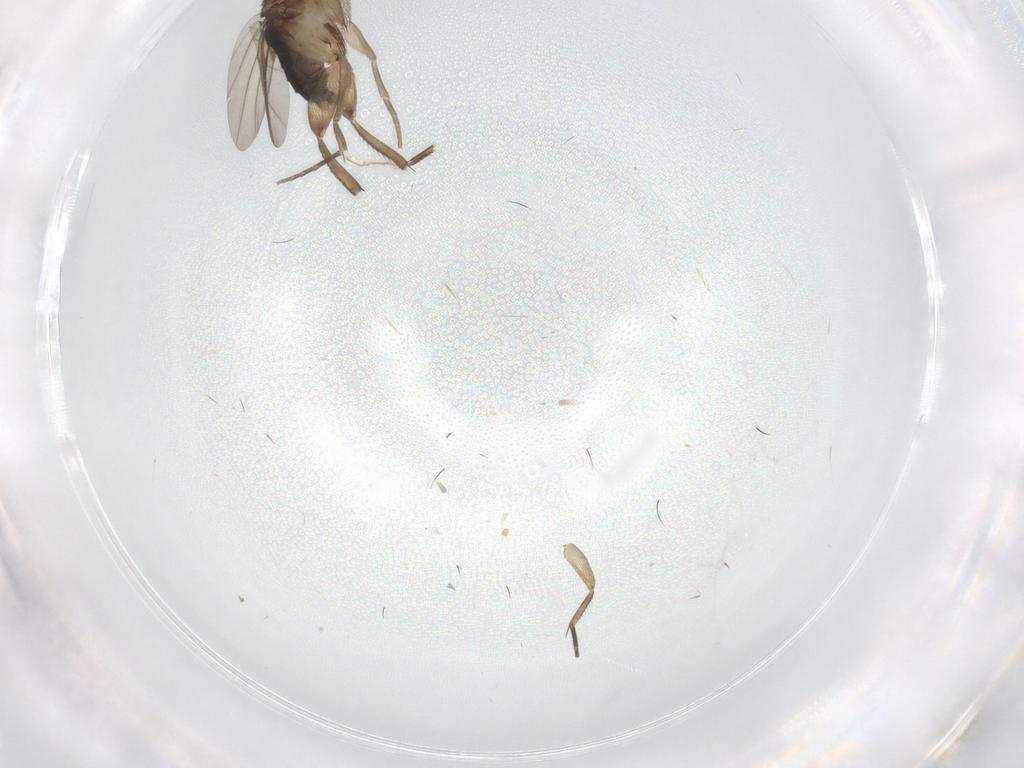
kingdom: Animalia
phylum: Arthropoda
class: Insecta
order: Diptera
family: Phoridae
